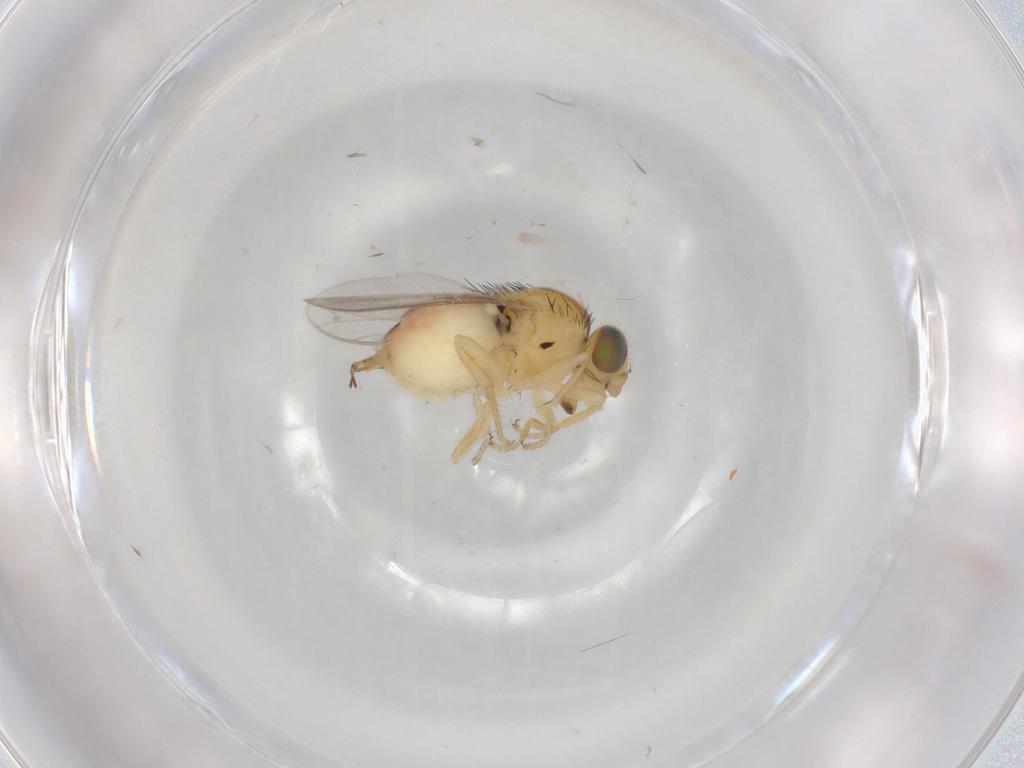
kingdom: Animalia
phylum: Arthropoda
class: Insecta
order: Diptera
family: Chloropidae
